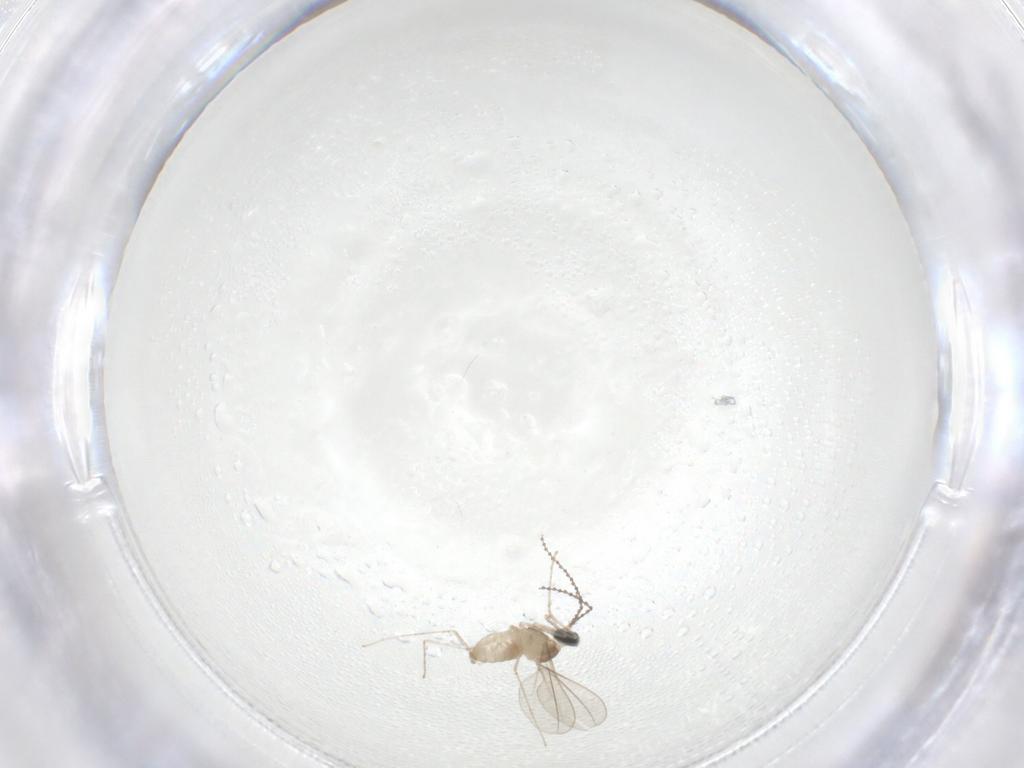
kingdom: Animalia
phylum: Arthropoda
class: Insecta
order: Diptera
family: Cecidomyiidae
